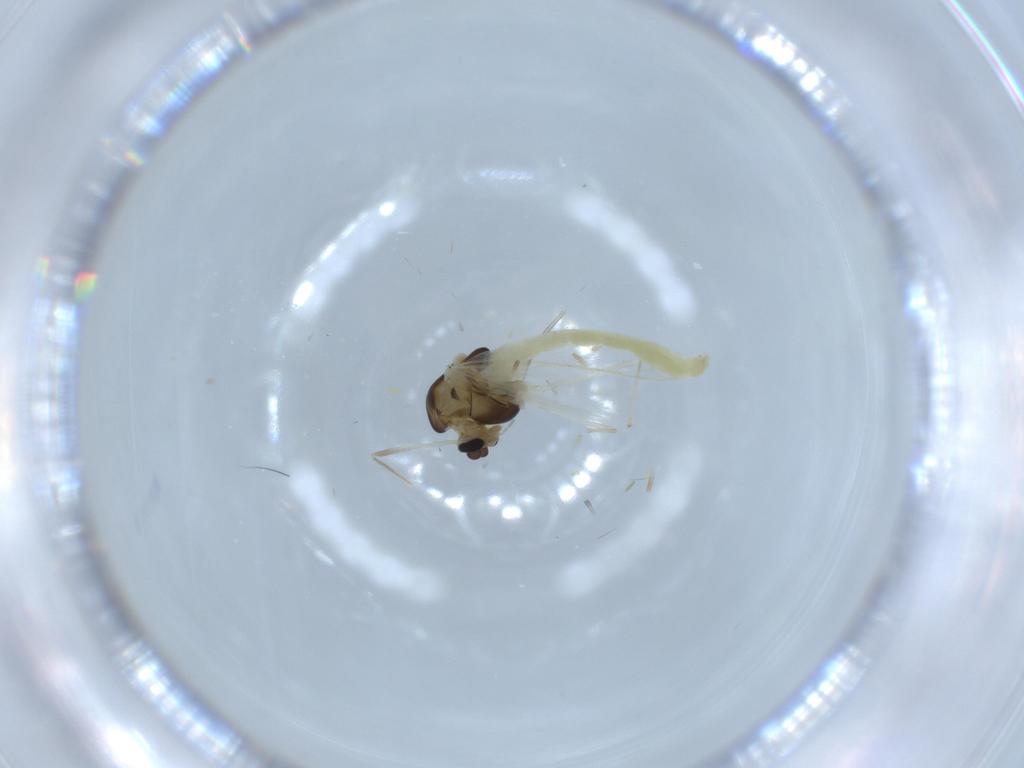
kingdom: Animalia
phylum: Arthropoda
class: Insecta
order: Diptera
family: Chironomidae
